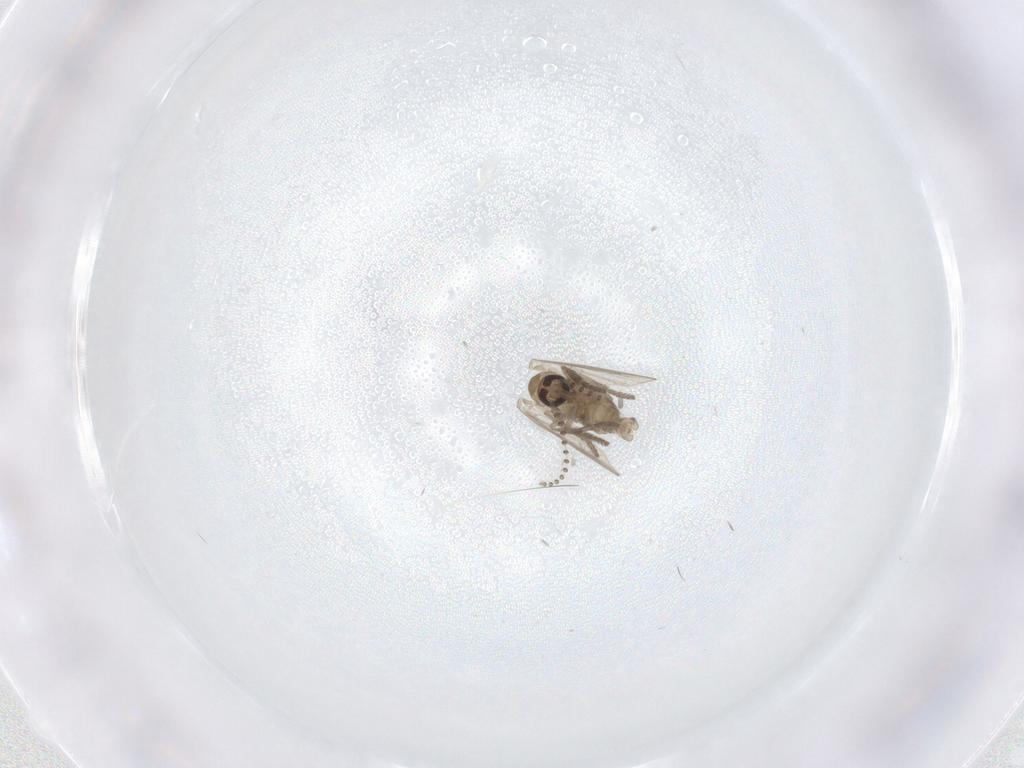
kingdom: Animalia
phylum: Arthropoda
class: Insecta
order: Diptera
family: Psychodidae
